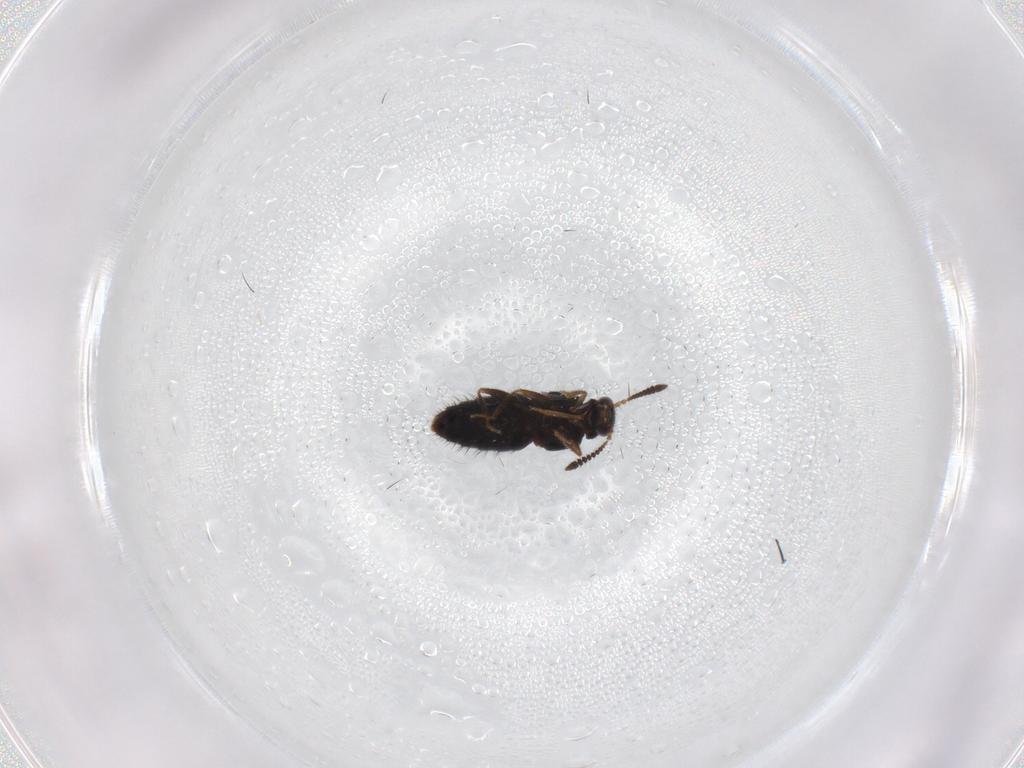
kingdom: Animalia
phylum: Arthropoda
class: Insecta
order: Coleoptera
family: Staphylinidae
